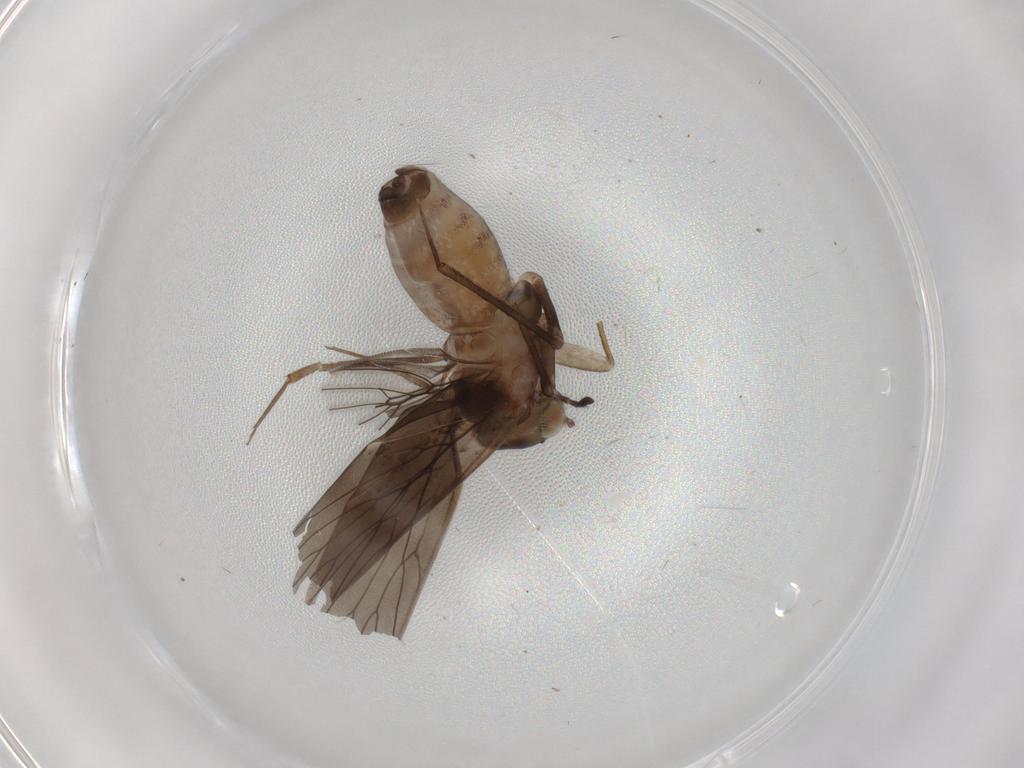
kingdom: Animalia
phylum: Arthropoda
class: Insecta
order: Psocodea
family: Lepidopsocidae
